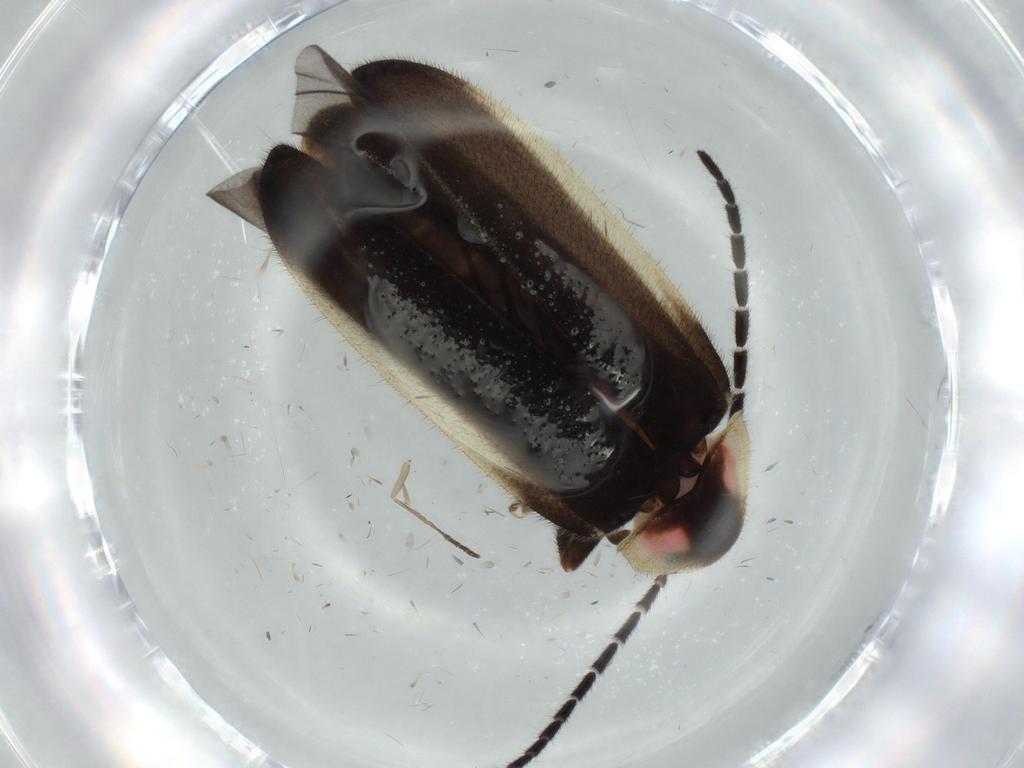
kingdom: Animalia
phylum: Arthropoda
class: Insecta
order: Coleoptera
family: Lampyridae
